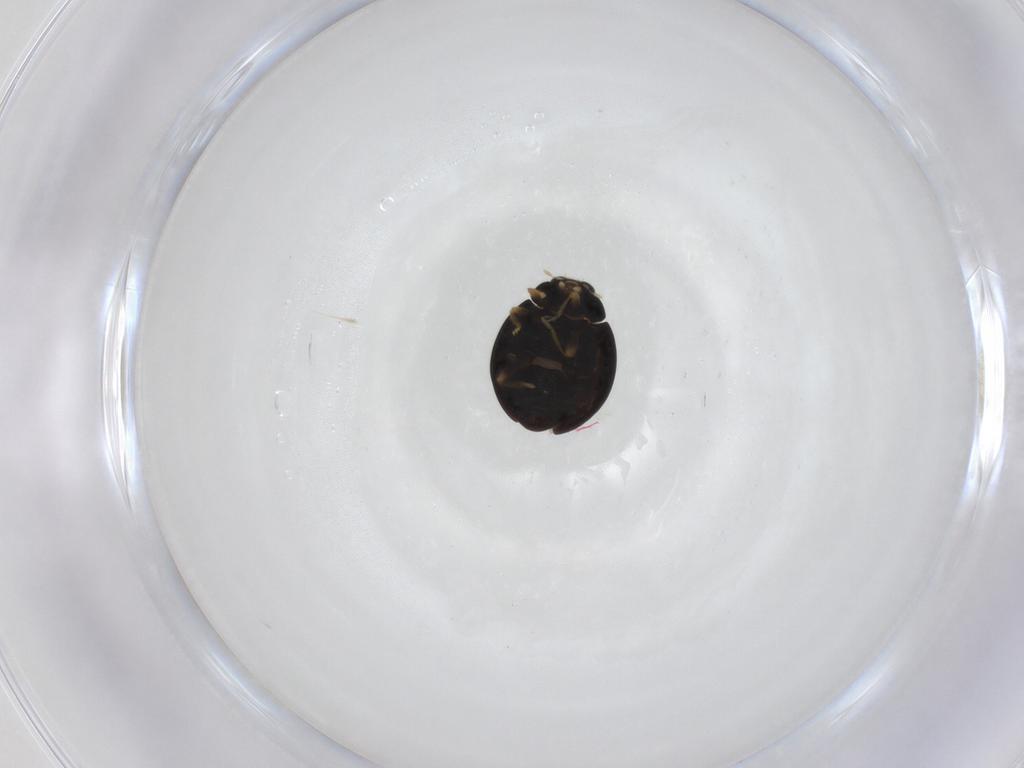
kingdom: Animalia
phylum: Arthropoda
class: Insecta
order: Coleoptera
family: Coccinellidae
